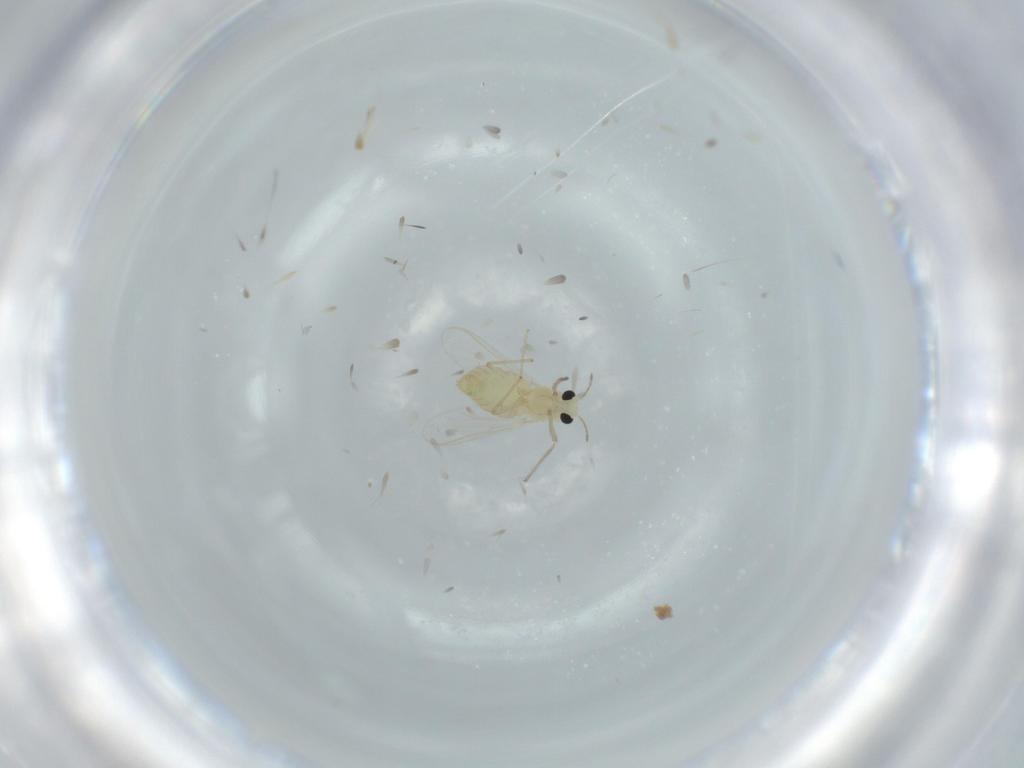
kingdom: Animalia
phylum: Arthropoda
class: Insecta
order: Diptera
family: Chironomidae
